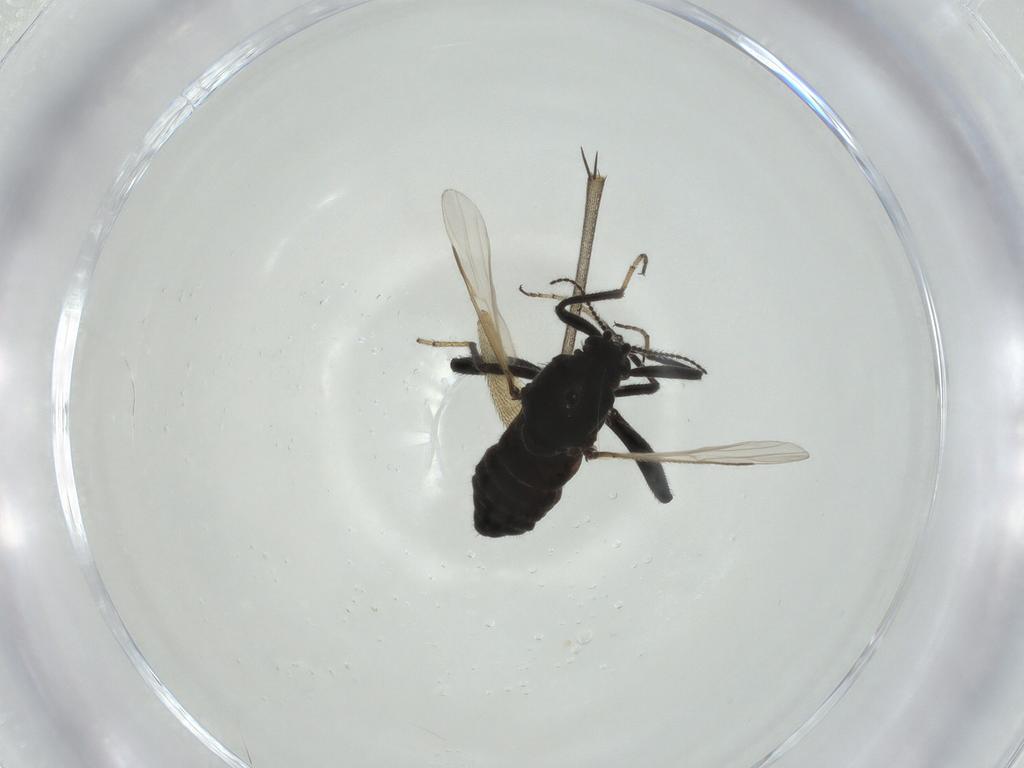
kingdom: Animalia
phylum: Arthropoda
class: Insecta
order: Diptera
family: Ceratopogonidae
